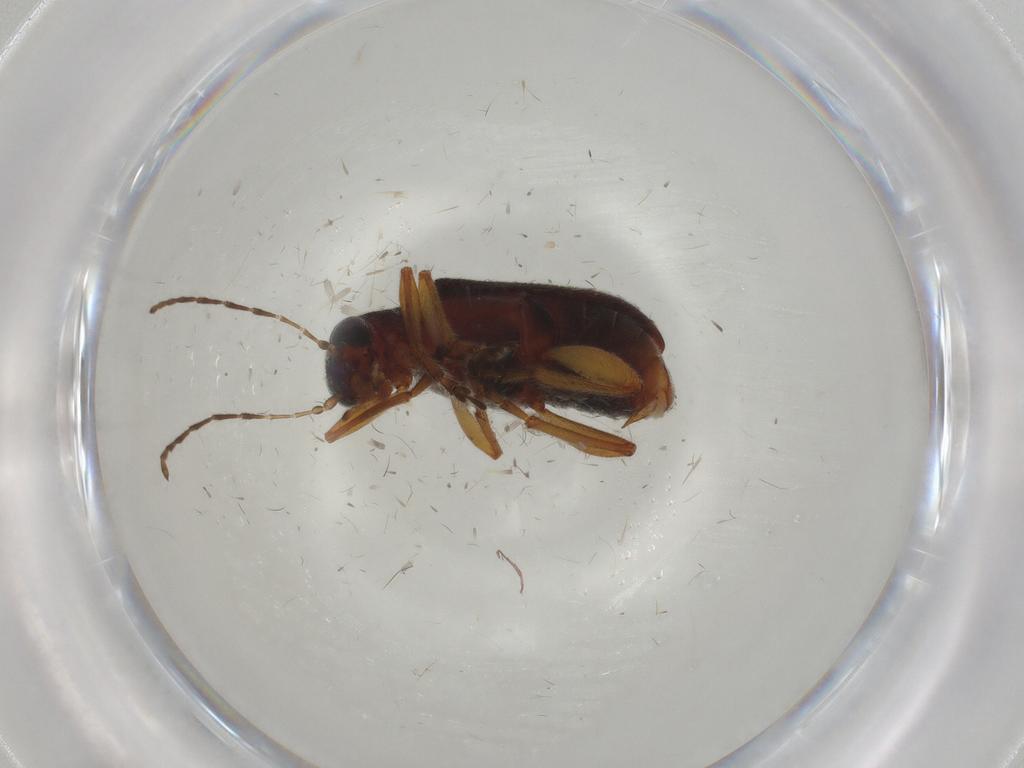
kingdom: Animalia
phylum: Arthropoda
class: Insecta
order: Coleoptera
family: Chrysomelidae
